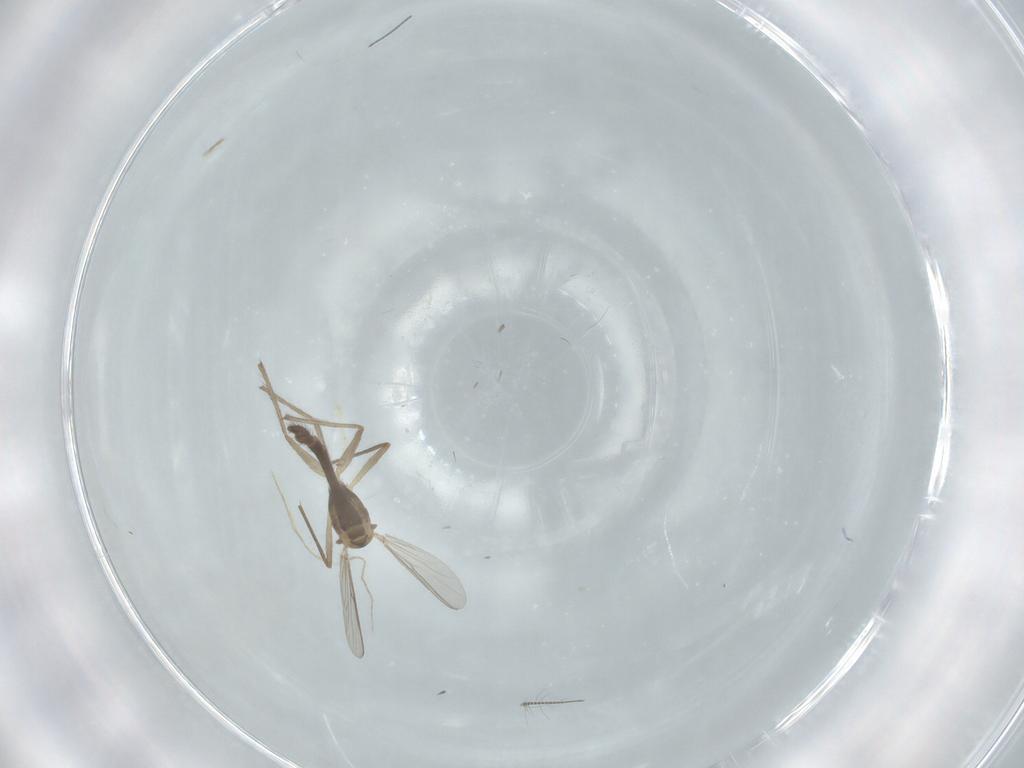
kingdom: Animalia
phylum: Arthropoda
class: Insecta
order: Diptera
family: Chironomidae
